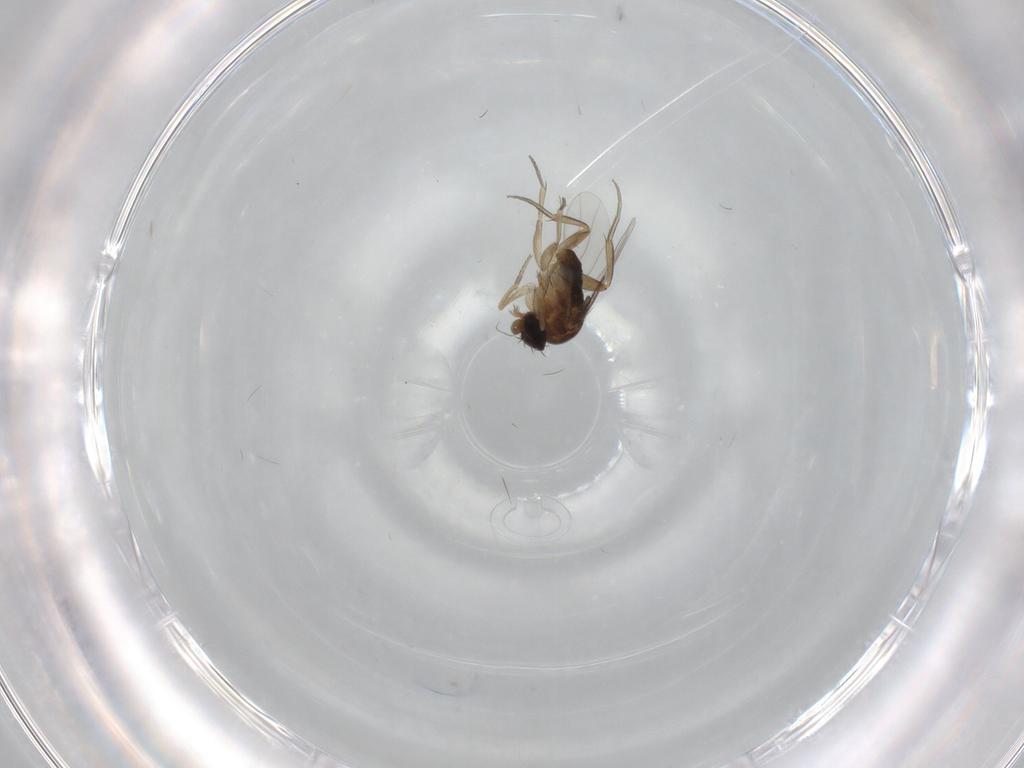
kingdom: Animalia
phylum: Arthropoda
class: Insecta
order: Diptera
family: Phoridae
